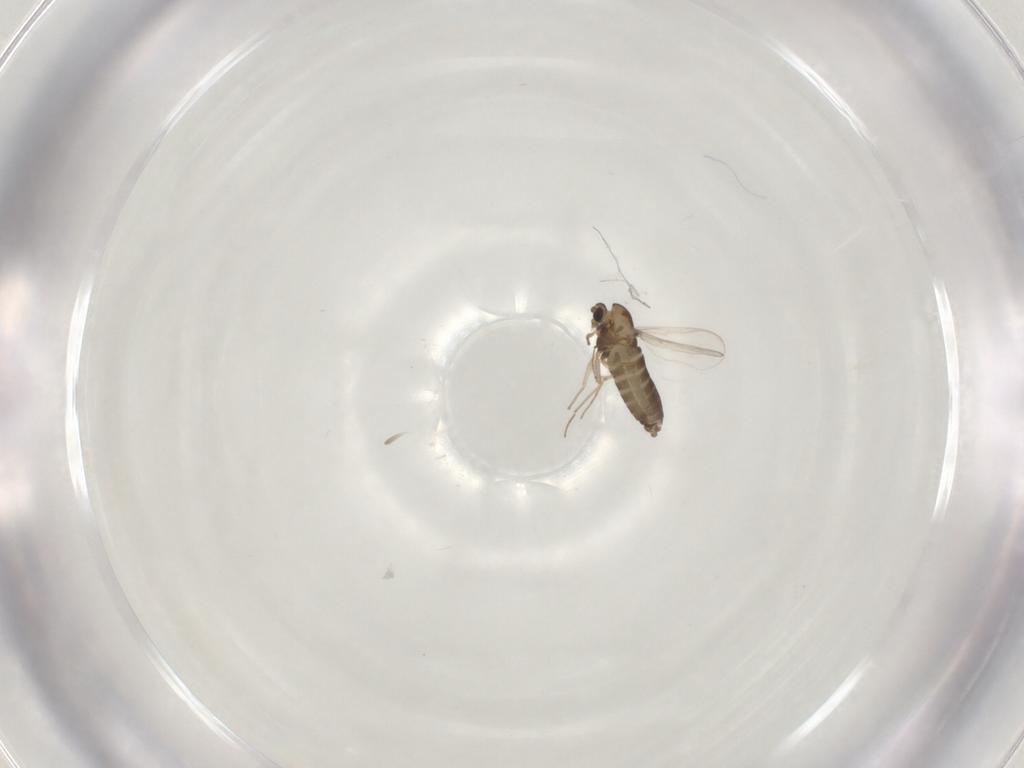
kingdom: Animalia
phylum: Arthropoda
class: Insecta
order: Diptera
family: Chironomidae
